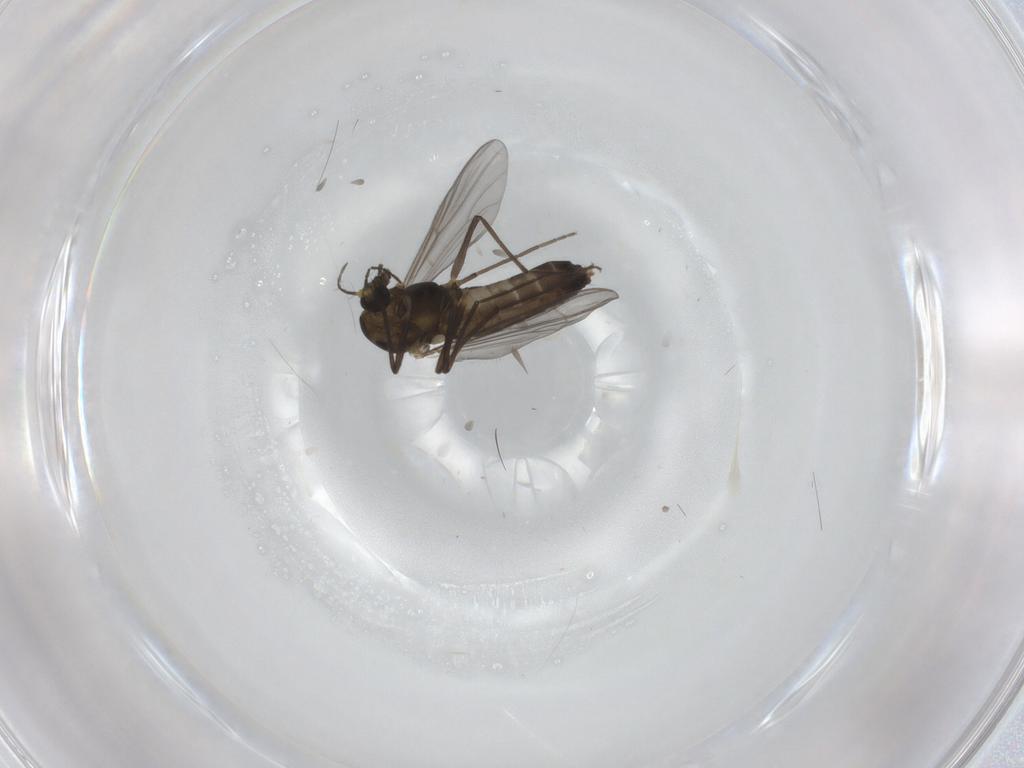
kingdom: Animalia
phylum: Arthropoda
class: Insecta
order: Diptera
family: Chironomidae
